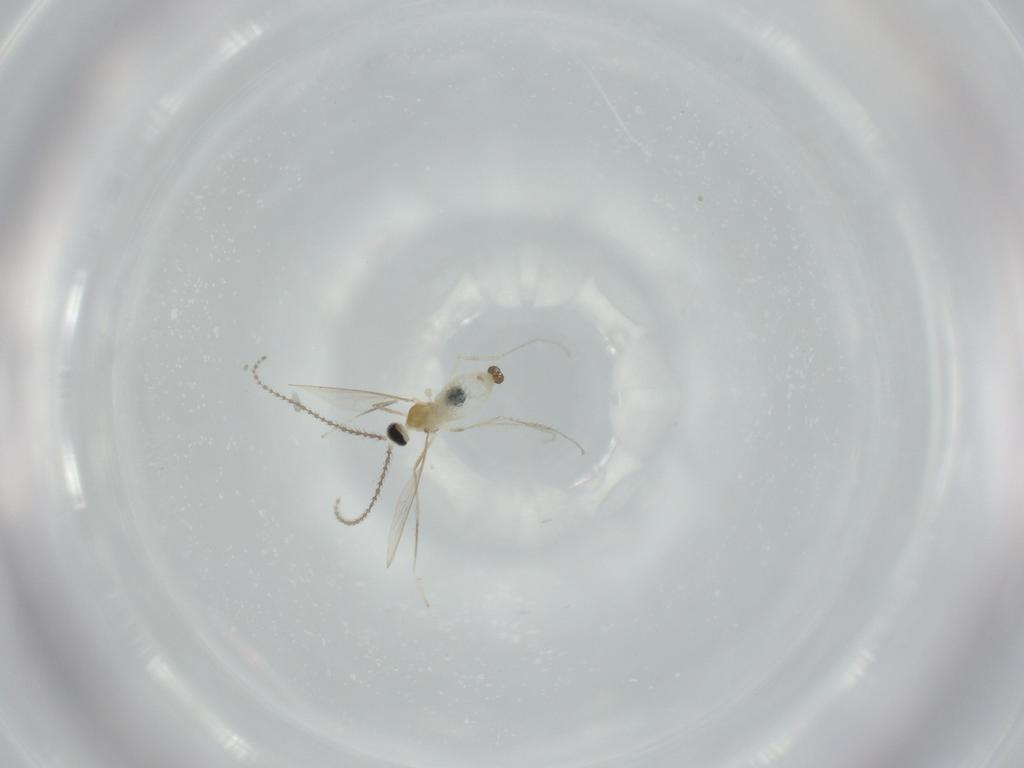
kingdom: Animalia
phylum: Arthropoda
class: Insecta
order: Diptera
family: Cecidomyiidae
